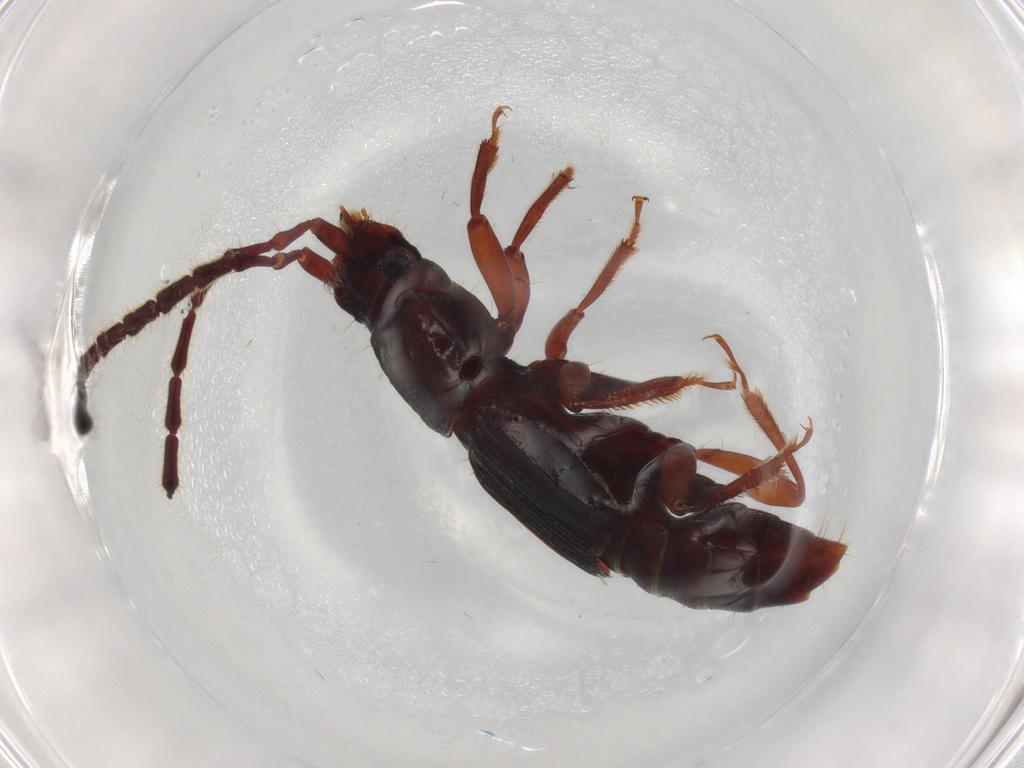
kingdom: Animalia
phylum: Arthropoda
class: Insecta
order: Coleoptera
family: Staphylinidae
